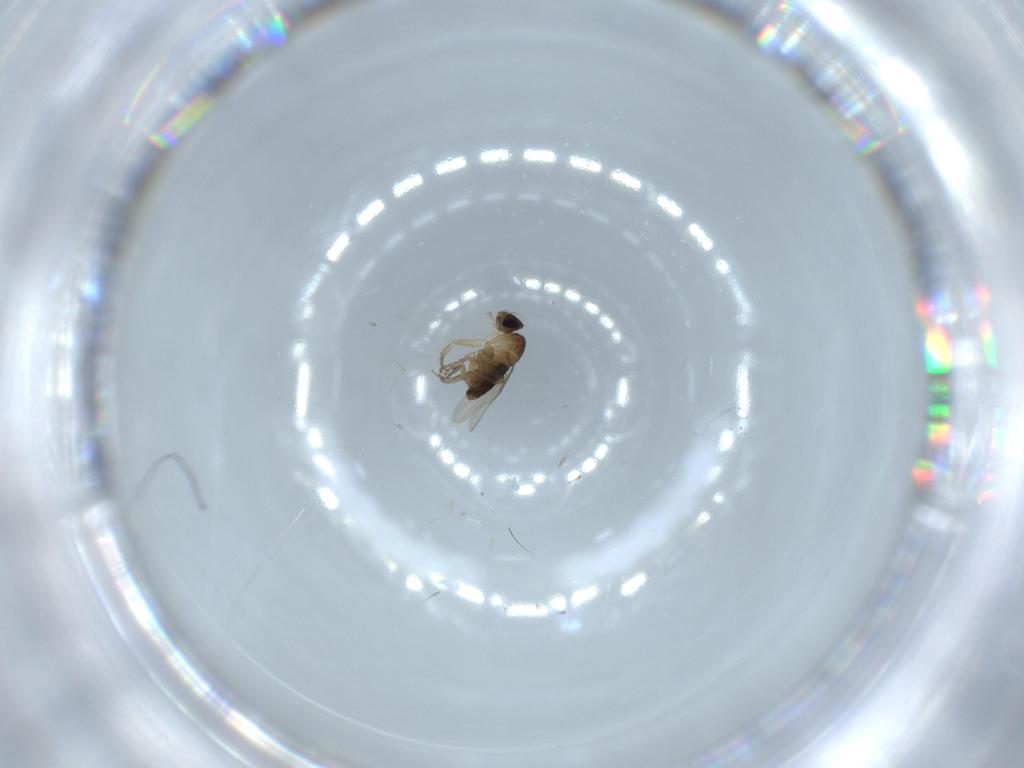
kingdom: Animalia
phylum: Arthropoda
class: Insecta
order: Diptera
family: Phoridae
